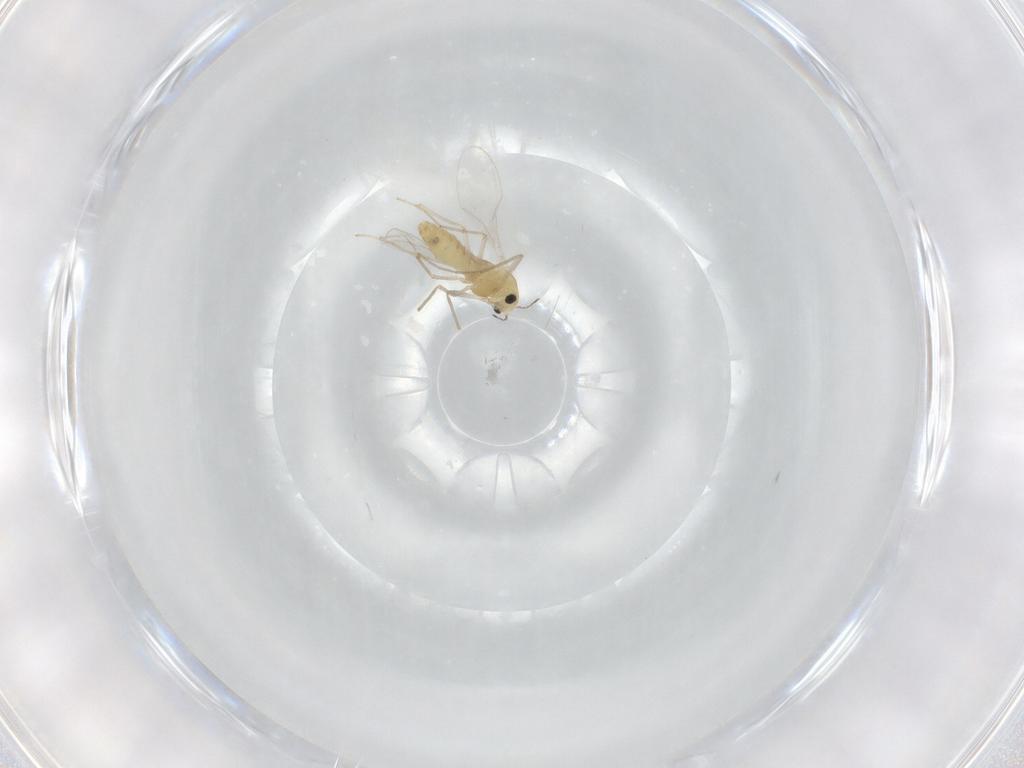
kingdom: Animalia
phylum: Arthropoda
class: Insecta
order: Diptera
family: Chironomidae
